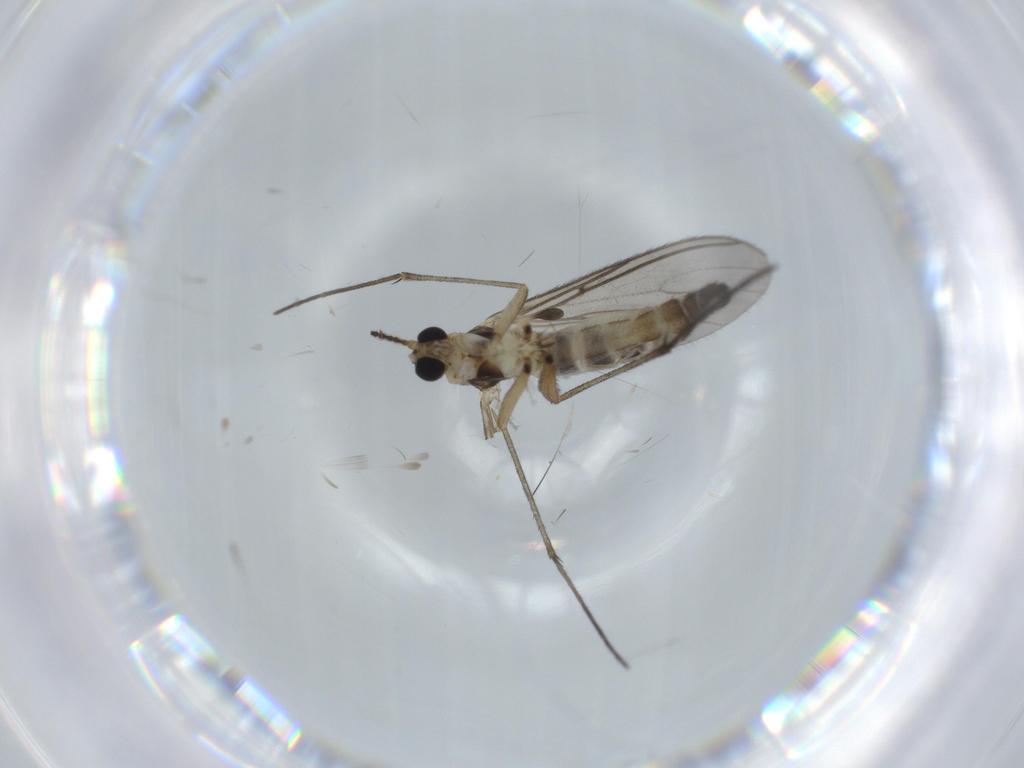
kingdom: Animalia
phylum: Arthropoda
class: Insecta
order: Diptera
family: Sciaridae
